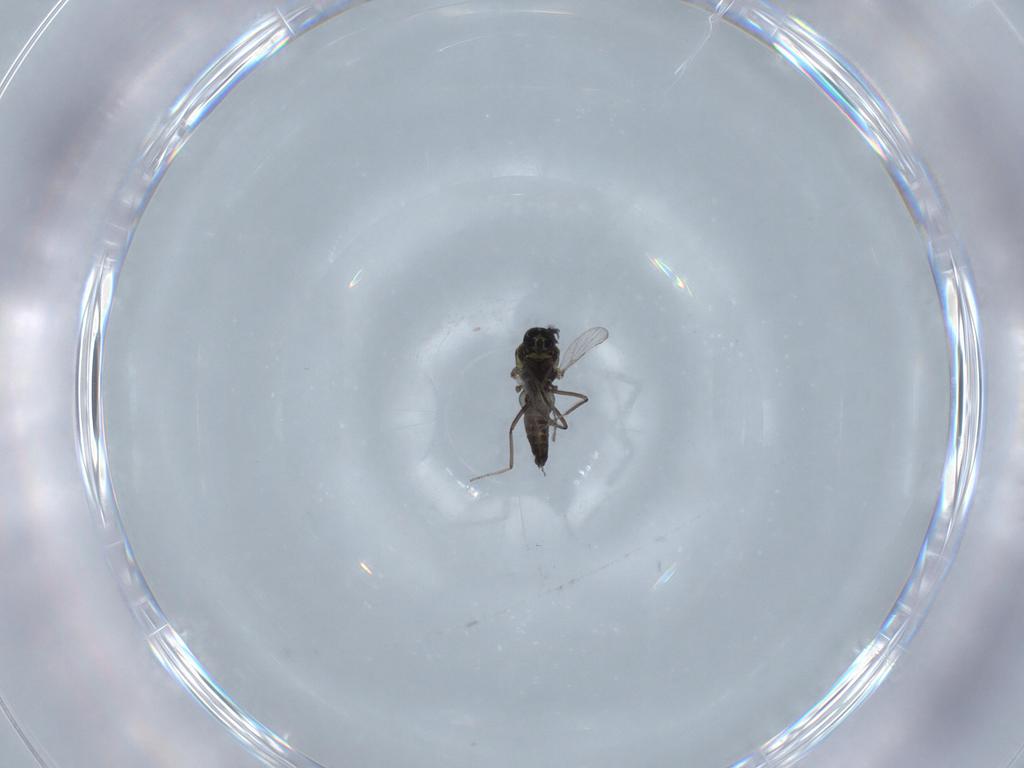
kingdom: Animalia
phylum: Arthropoda
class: Insecta
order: Diptera
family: Ceratopogonidae
